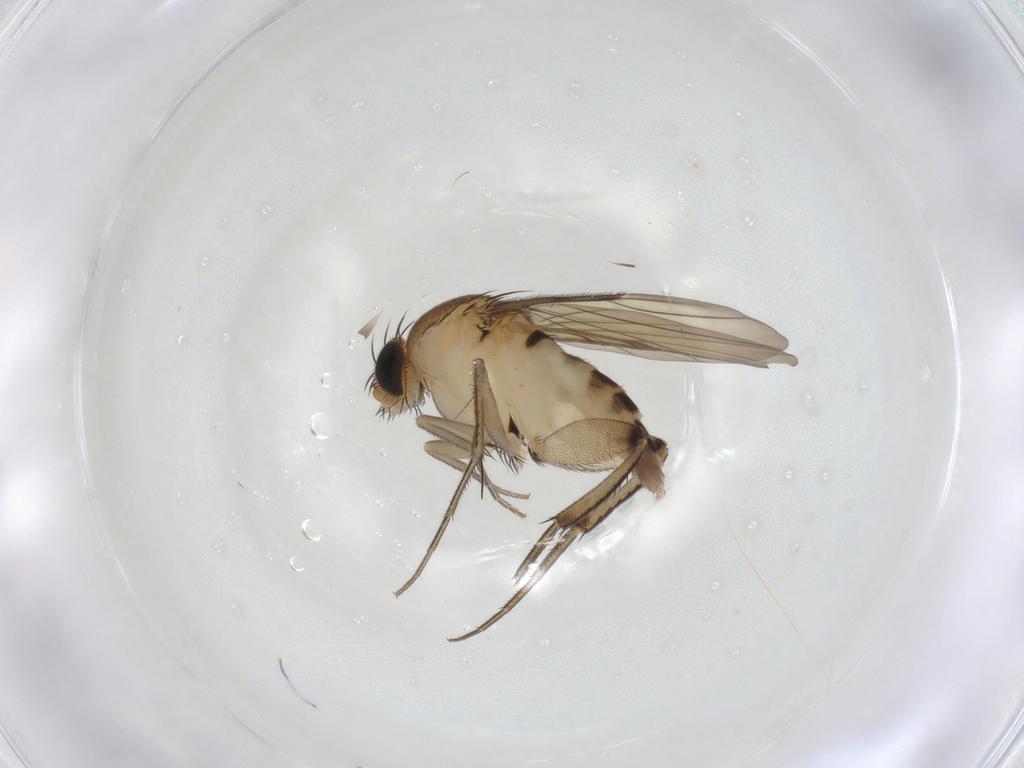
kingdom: Animalia
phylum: Arthropoda
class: Insecta
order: Diptera
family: Phoridae
